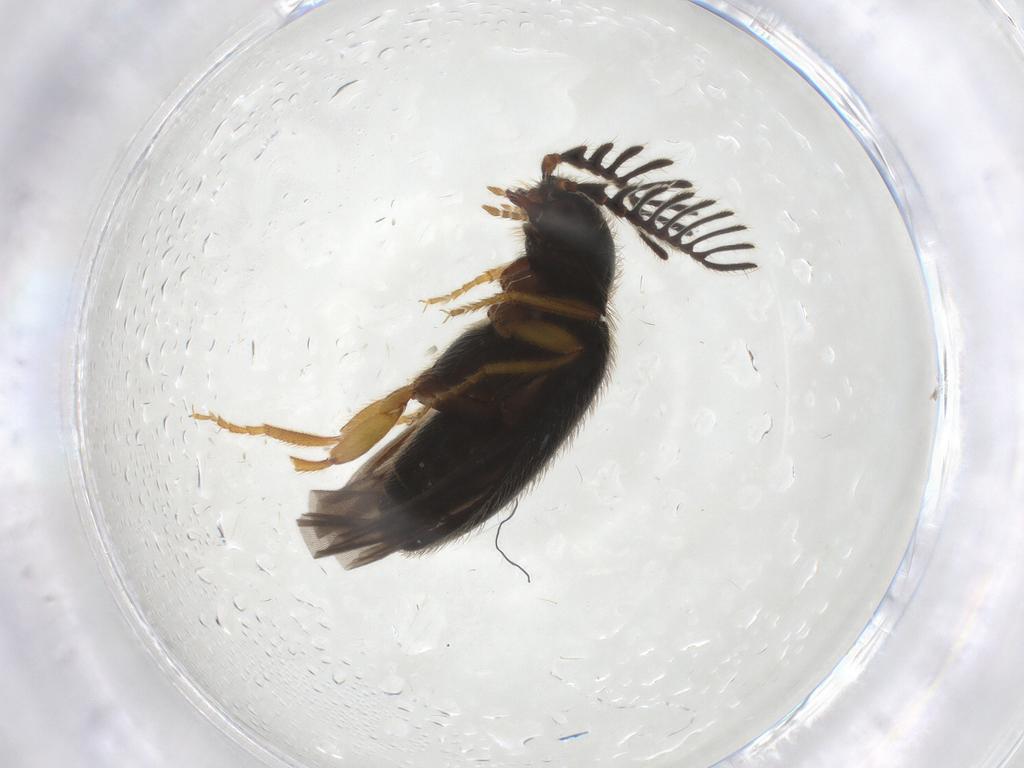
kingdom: Animalia
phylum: Arthropoda
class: Insecta
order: Coleoptera
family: Elateridae
